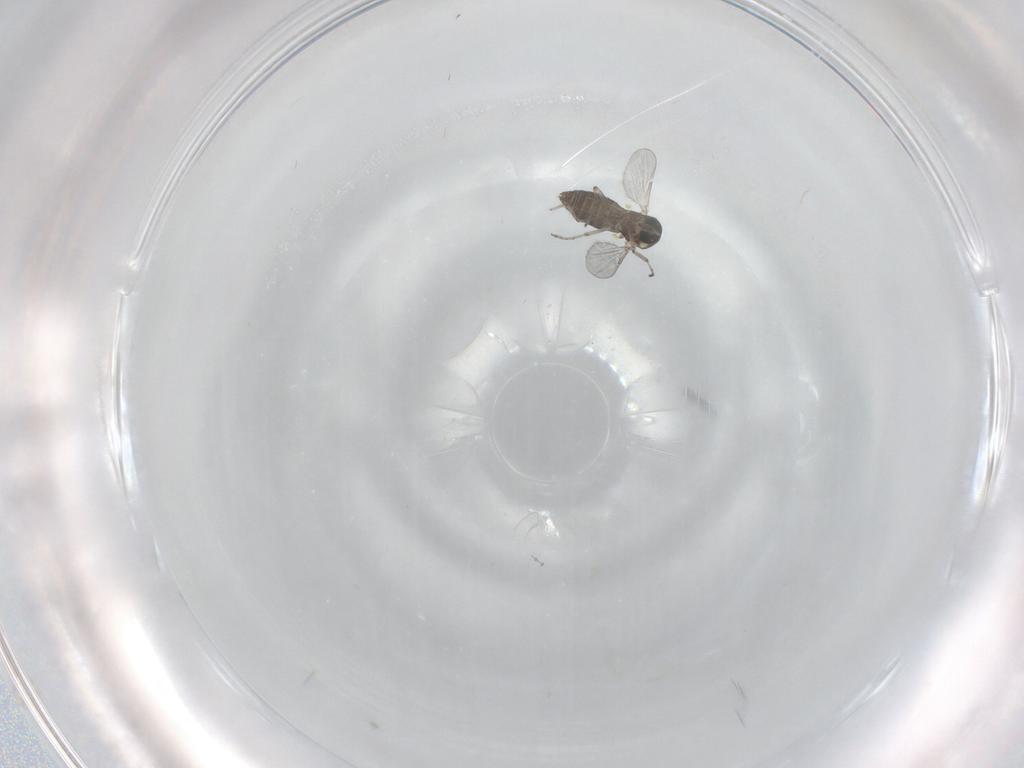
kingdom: Animalia
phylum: Arthropoda
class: Insecta
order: Diptera
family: Ceratopogonidae
